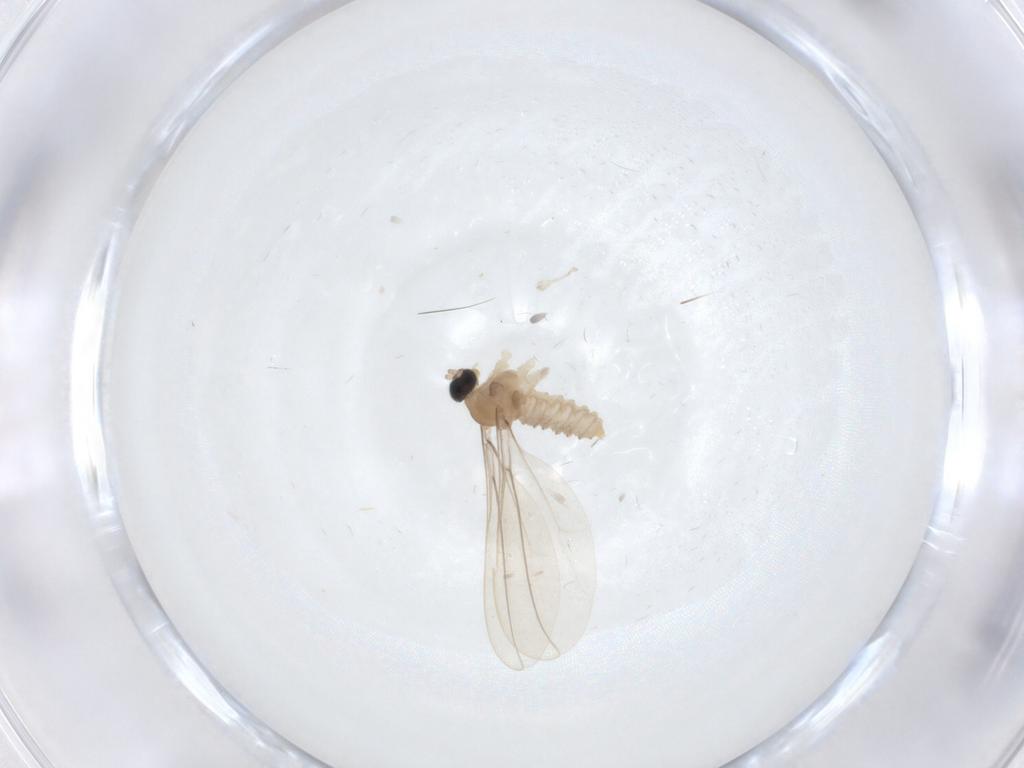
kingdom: Animalia
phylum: Arthropoda
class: Insecta
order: Diptera
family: Cecidomyiidae
